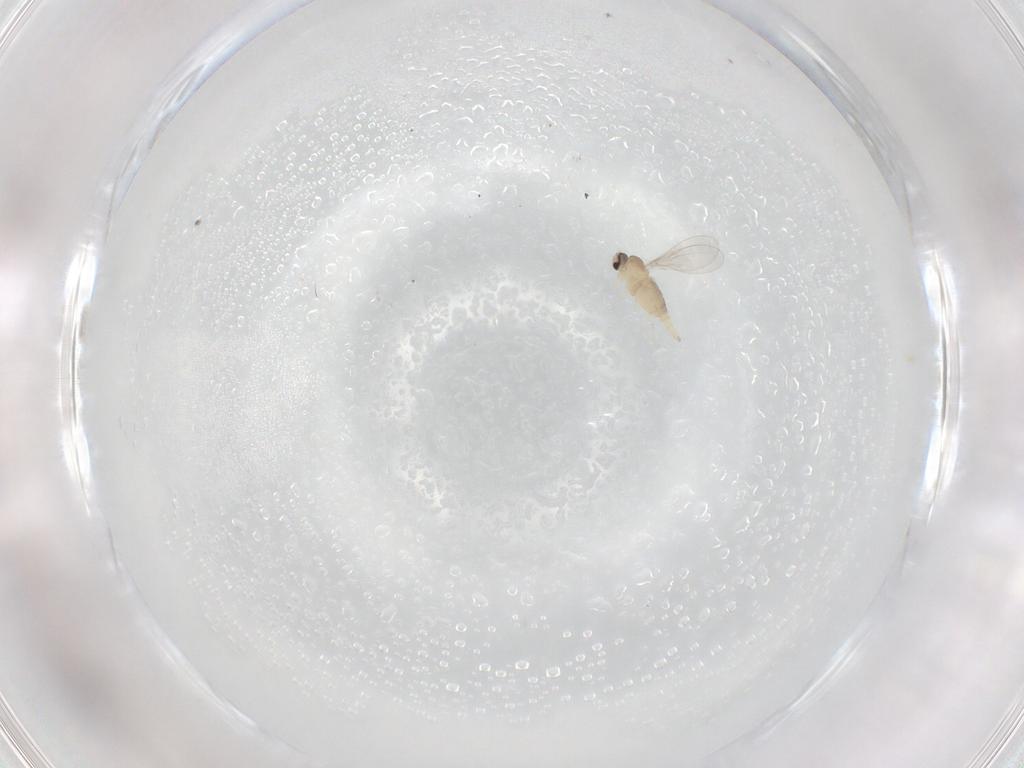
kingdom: Animalia
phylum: Arthropoda
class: Insecta
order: Diptera
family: Cecidomyiidae
